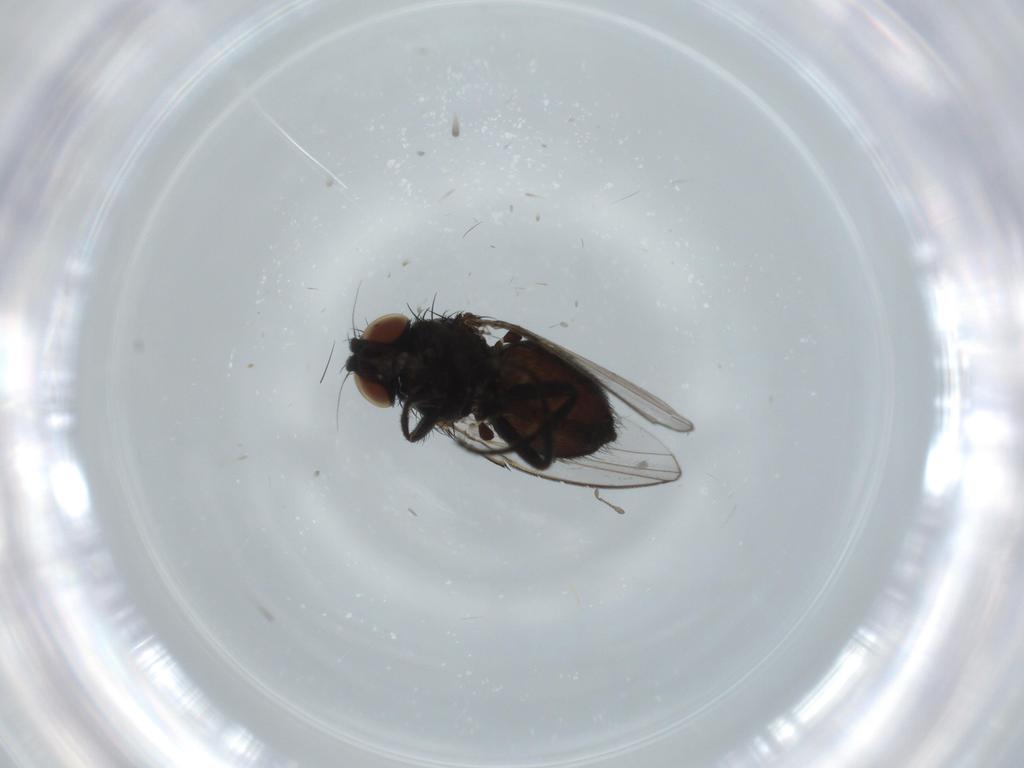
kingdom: Animalia
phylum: Arthropoda
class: Insecta
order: Diptera
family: Milichiidae
